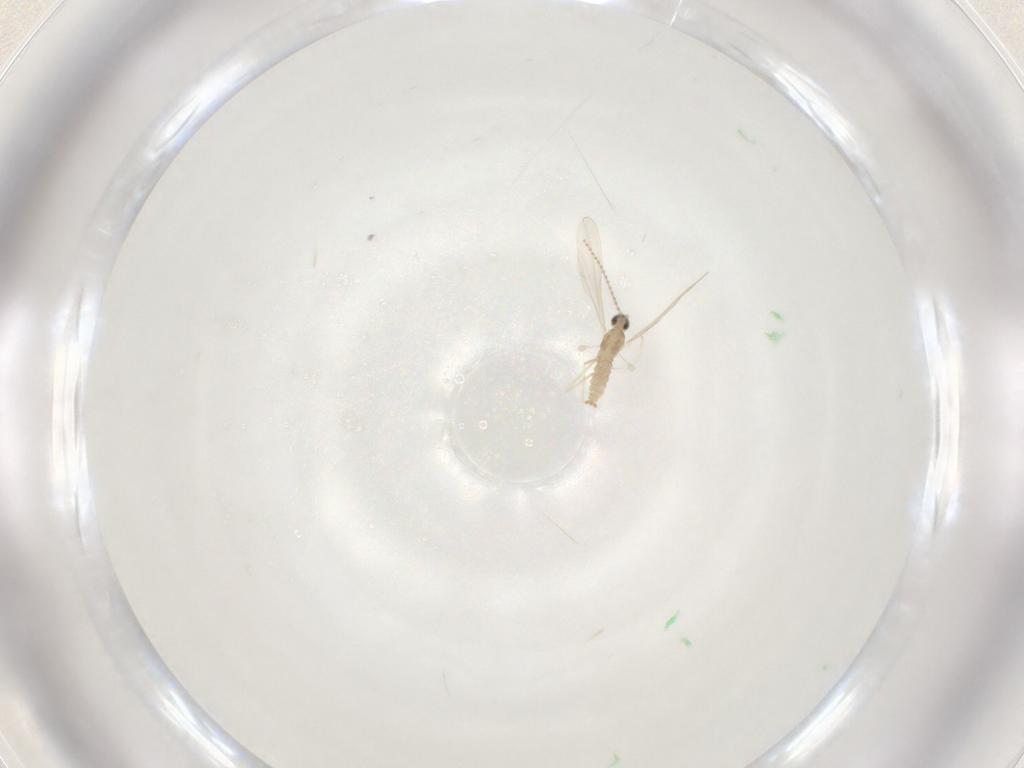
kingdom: Animalia
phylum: Arthropoda
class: Insecta
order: Diptera
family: Cecidomyiidae
